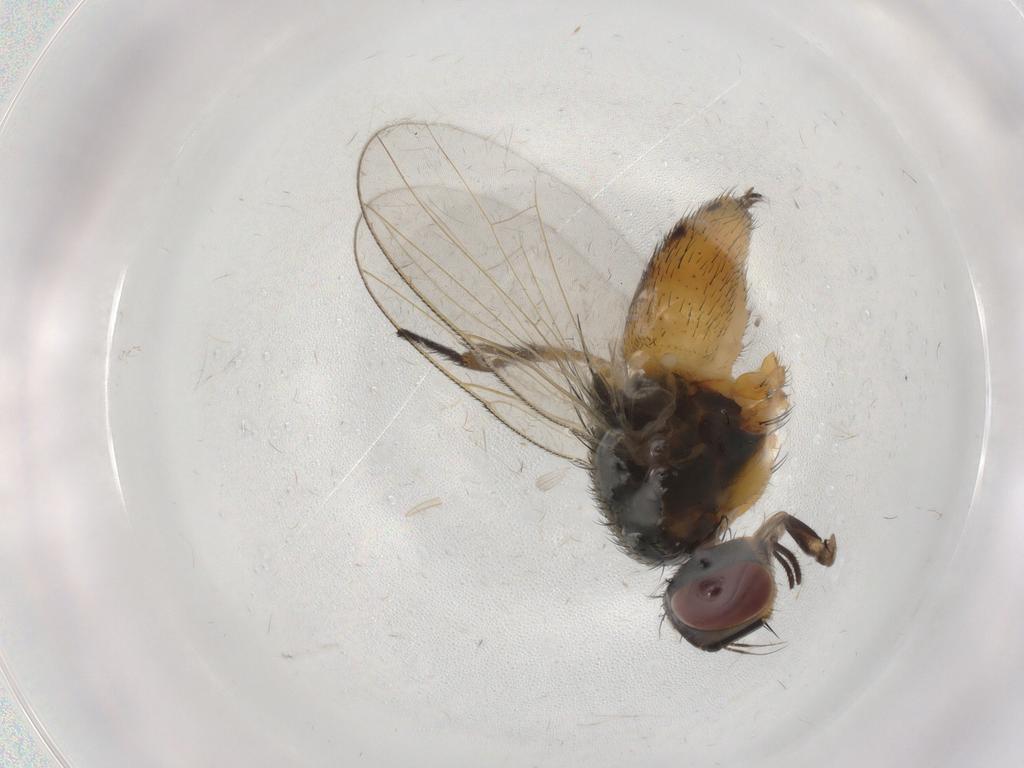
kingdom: Animalia
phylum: Arthropoda
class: Insecta
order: Diptera
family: Muscidae
